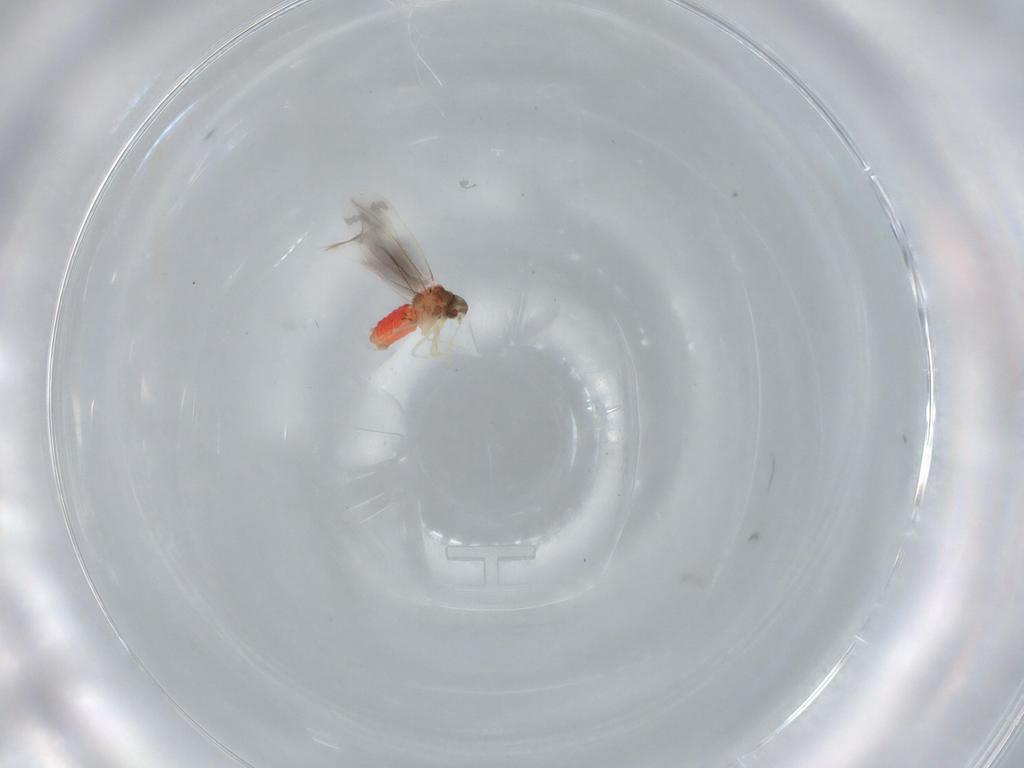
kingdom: Animalia
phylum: Arthropoda
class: Insecta
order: Hemiptera
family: Aleyrodidae
